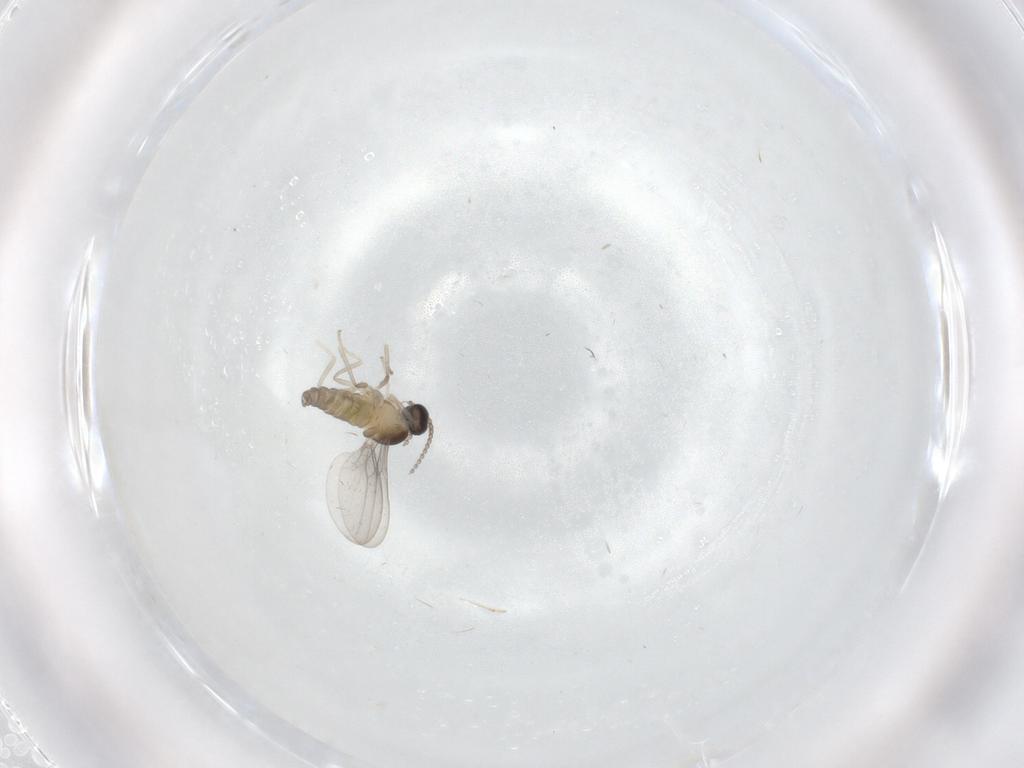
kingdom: Animalia
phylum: Arthropoda
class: Insecta
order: Diptera
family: Cecidomyiidae
